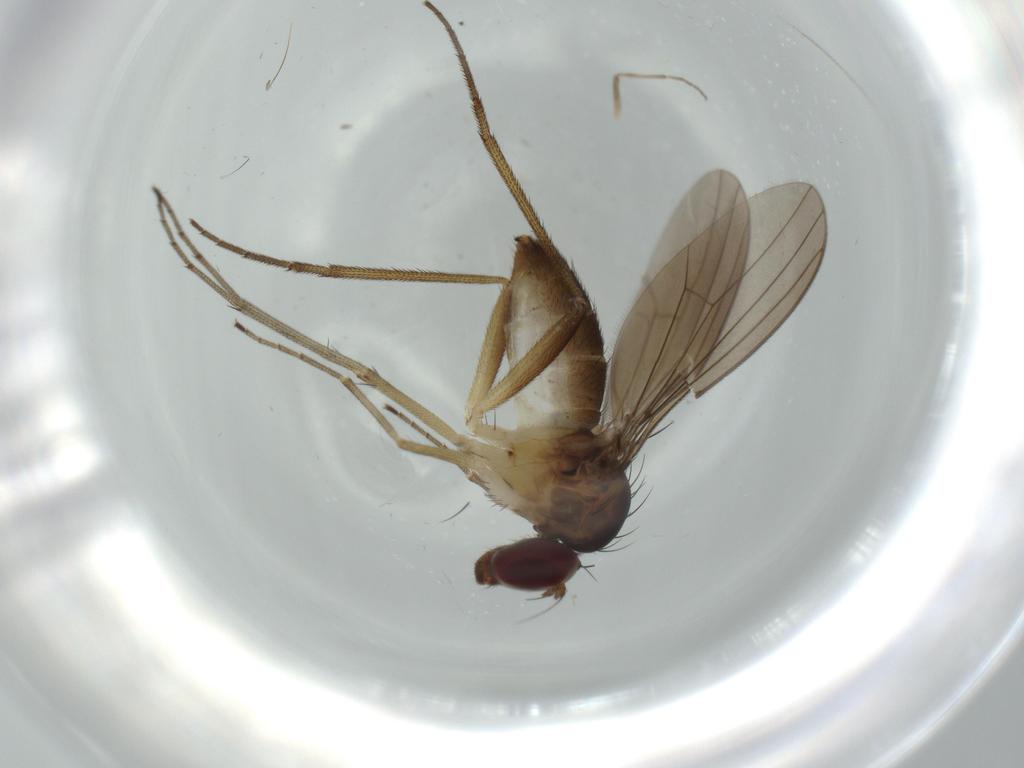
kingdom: Animalia
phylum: Arthropoda
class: Insecta
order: Diptera
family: Dolichopodidae
